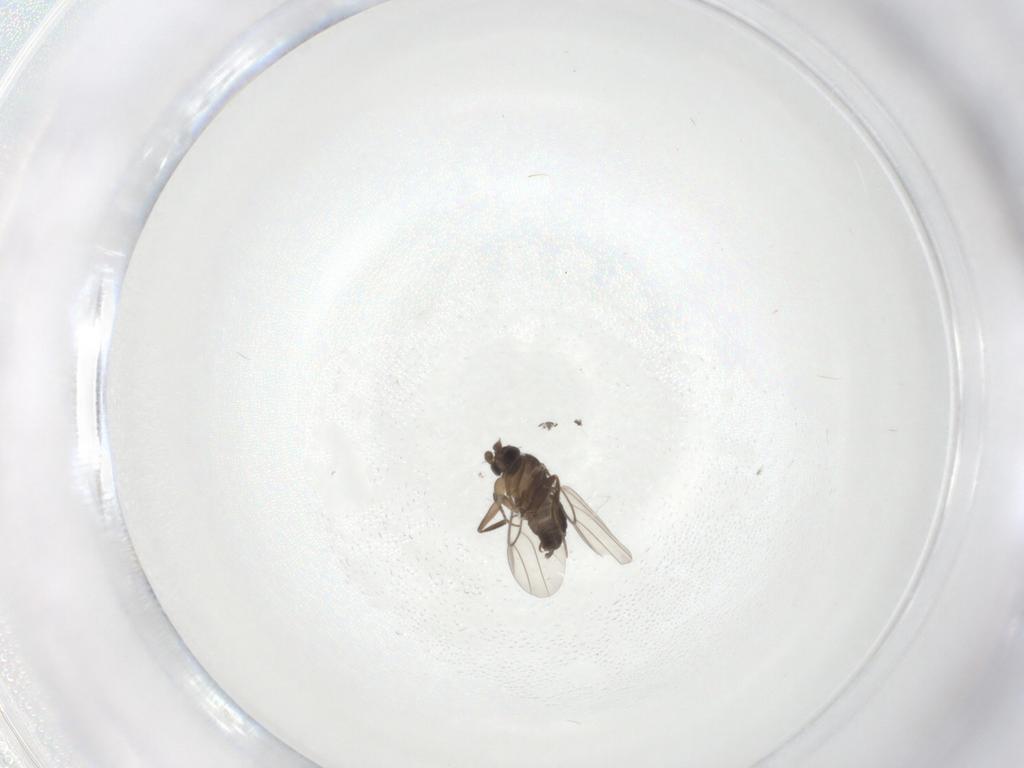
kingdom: Animalia
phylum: Arthropoda
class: Insecta
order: Diptera
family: Phoridae
